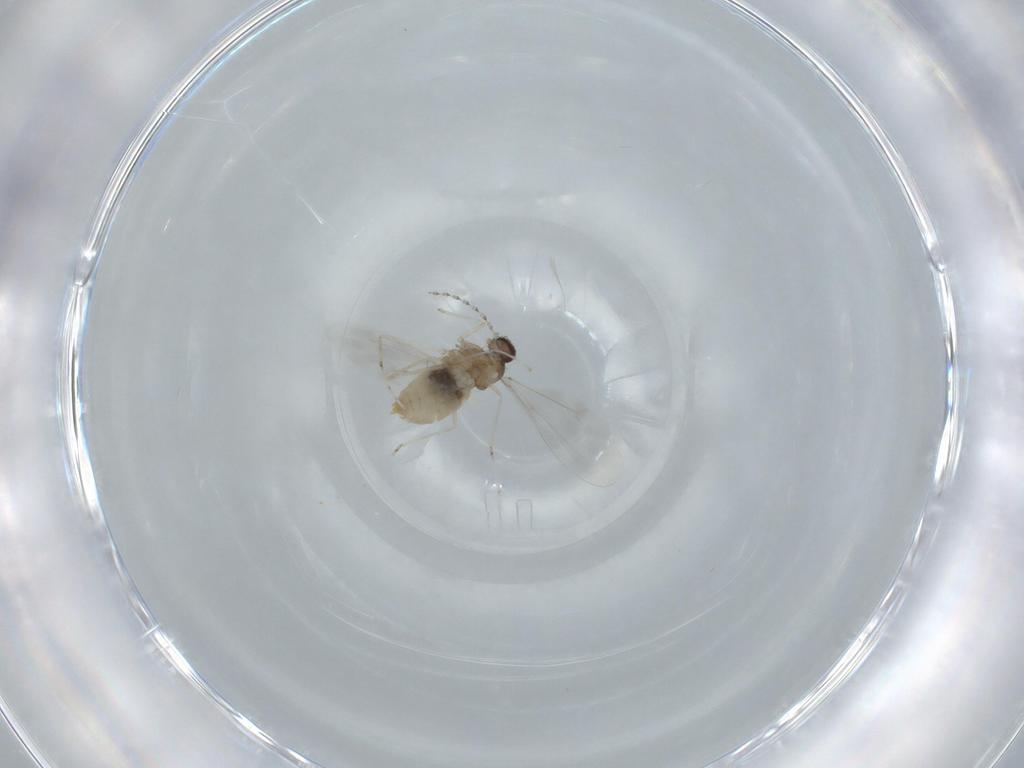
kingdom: Animalia
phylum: Arthropoda
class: Insecta
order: Diptera
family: Cecidomyiidae
